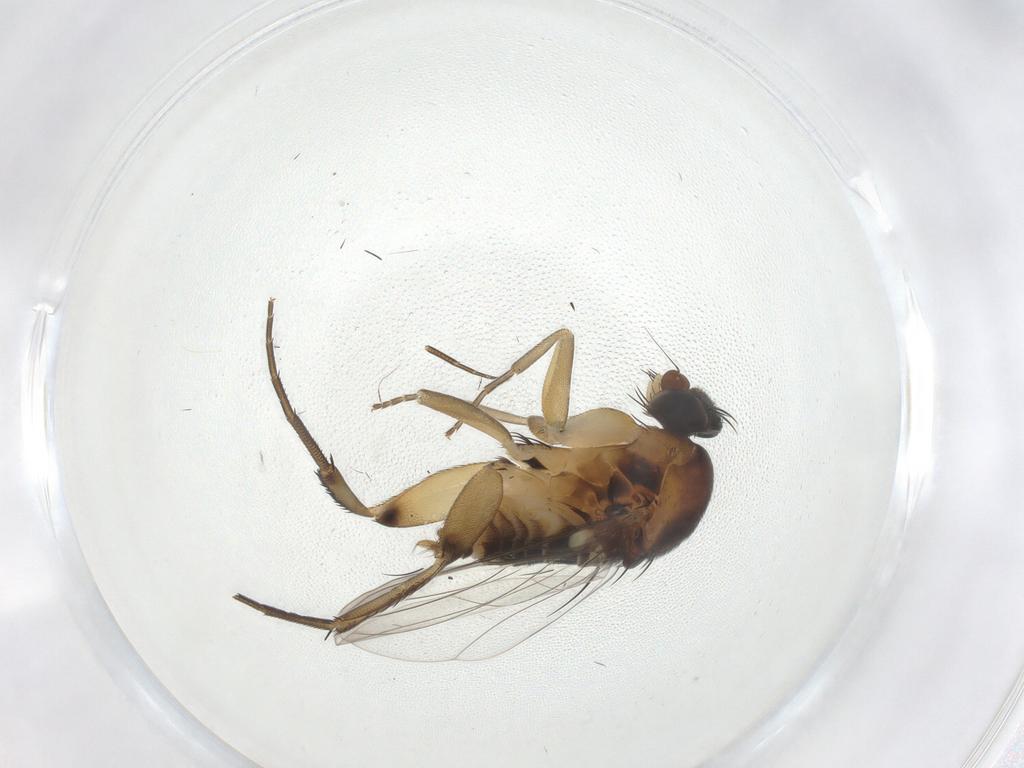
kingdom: Animalia
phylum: Arthropoda
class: Insecta
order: Diptera
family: Phoridae
